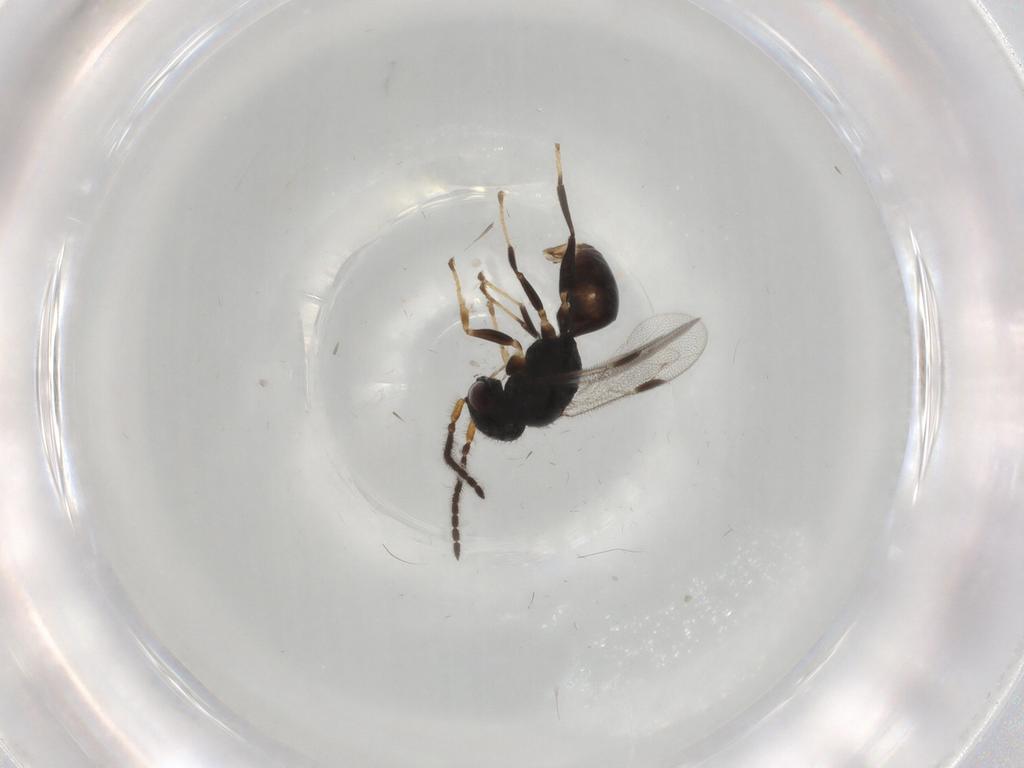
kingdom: Animalia
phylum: Arthropoda
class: Insecta
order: Hymenoptera
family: Dryinidae
